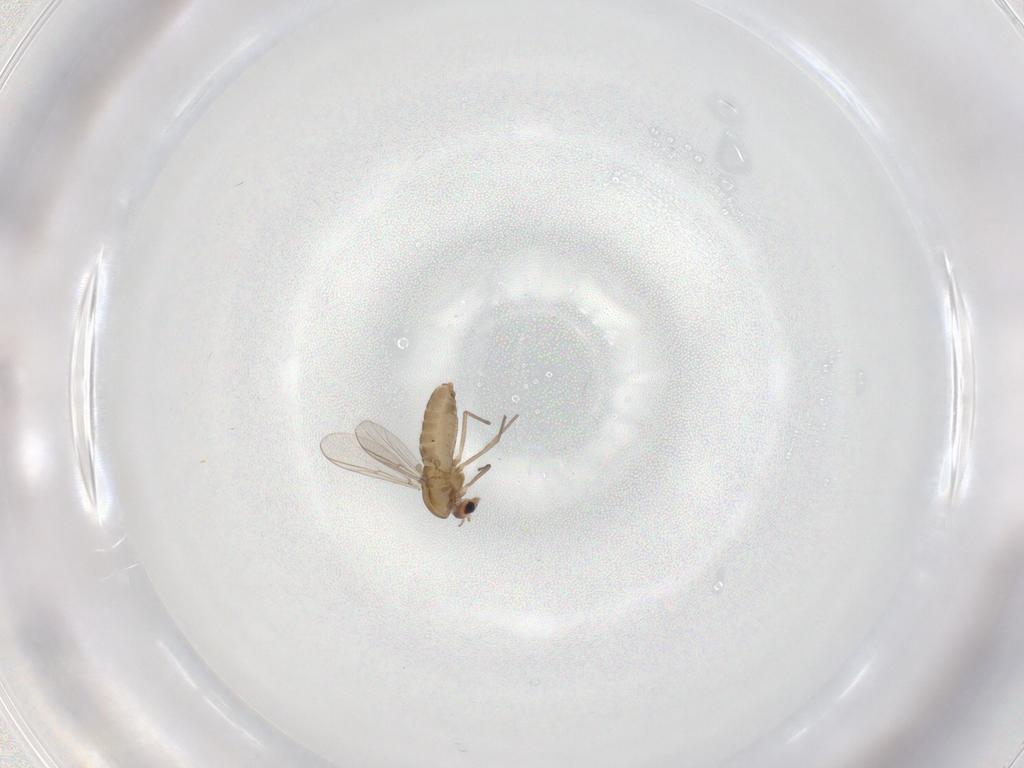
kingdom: Animalia
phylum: Arthropoda
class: Insecta
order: Diptera
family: Chironomidae
